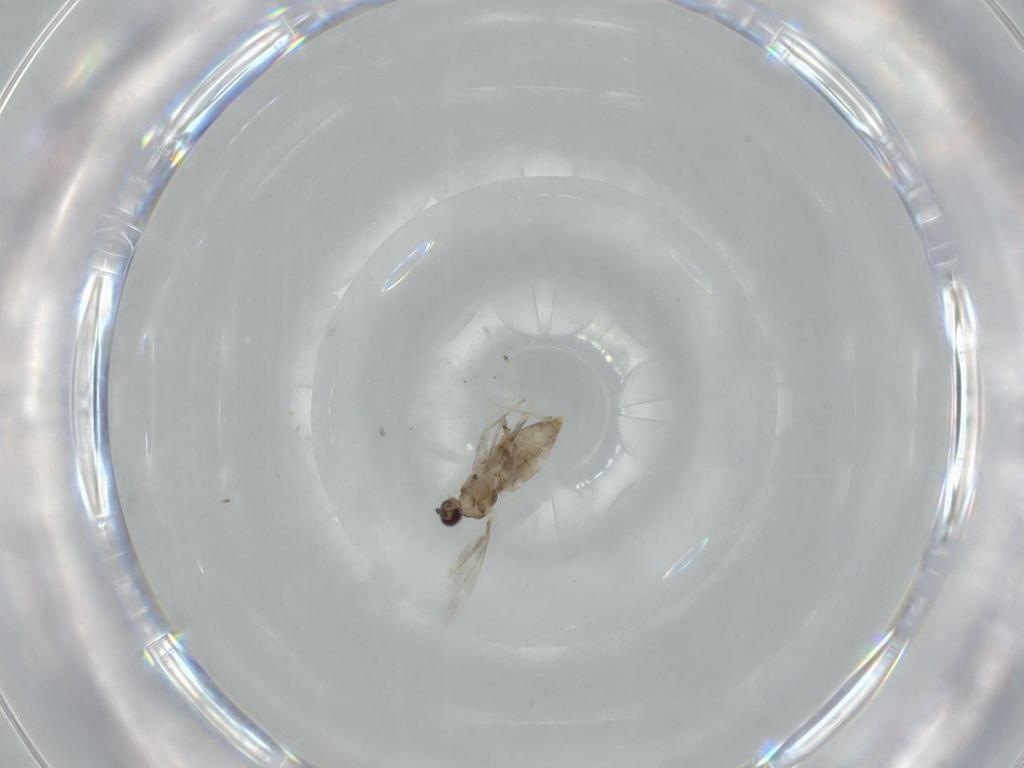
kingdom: Animalia
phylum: Arthropoda
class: Insecta
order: Diptera
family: Cecidomyiidae
